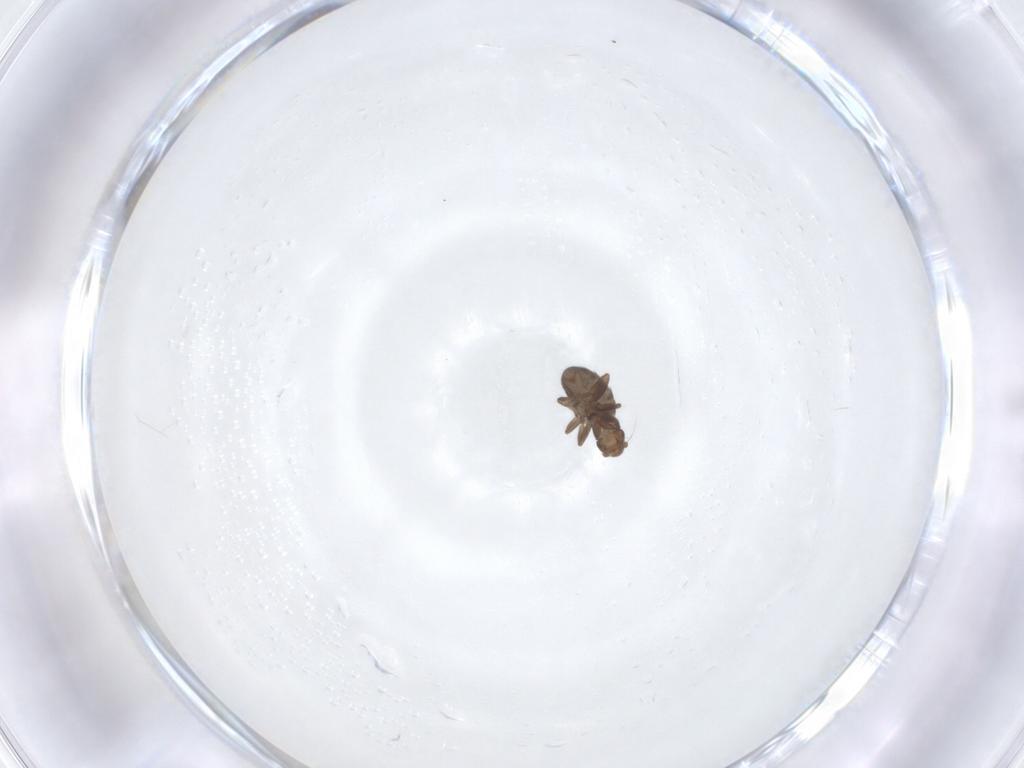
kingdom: Animalia
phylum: Arthropoda
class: Insecta
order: Diptera
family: Phoridae
